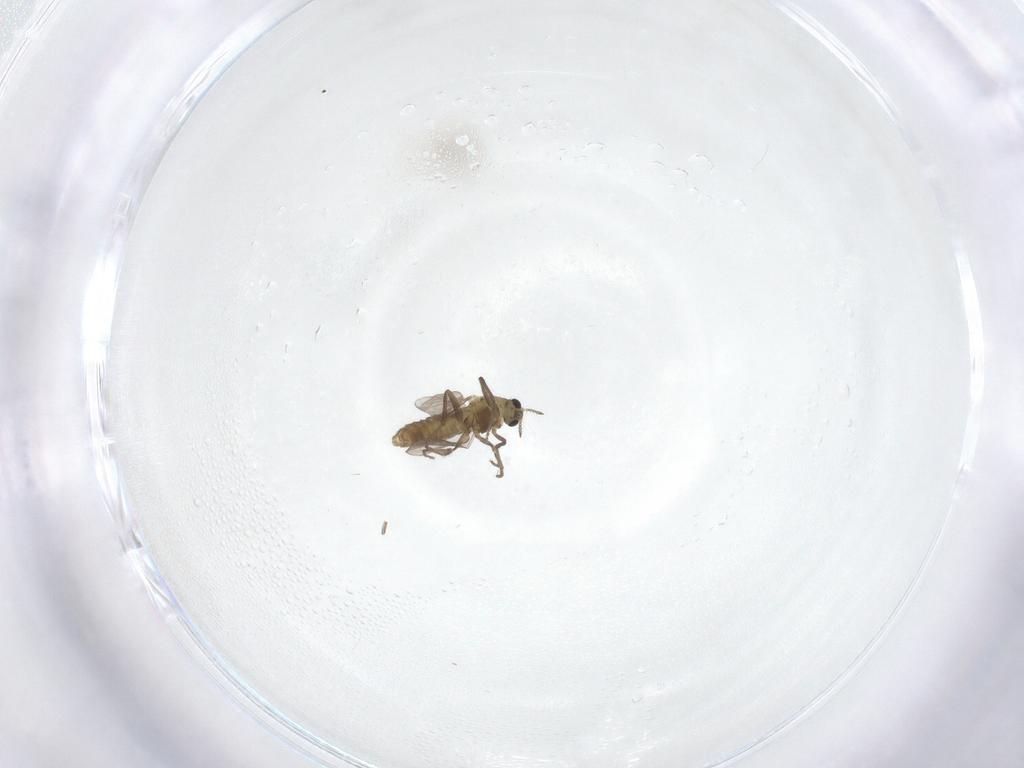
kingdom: Animalia
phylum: Arthropoda
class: Insecta
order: Diptera
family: Chironomidae
